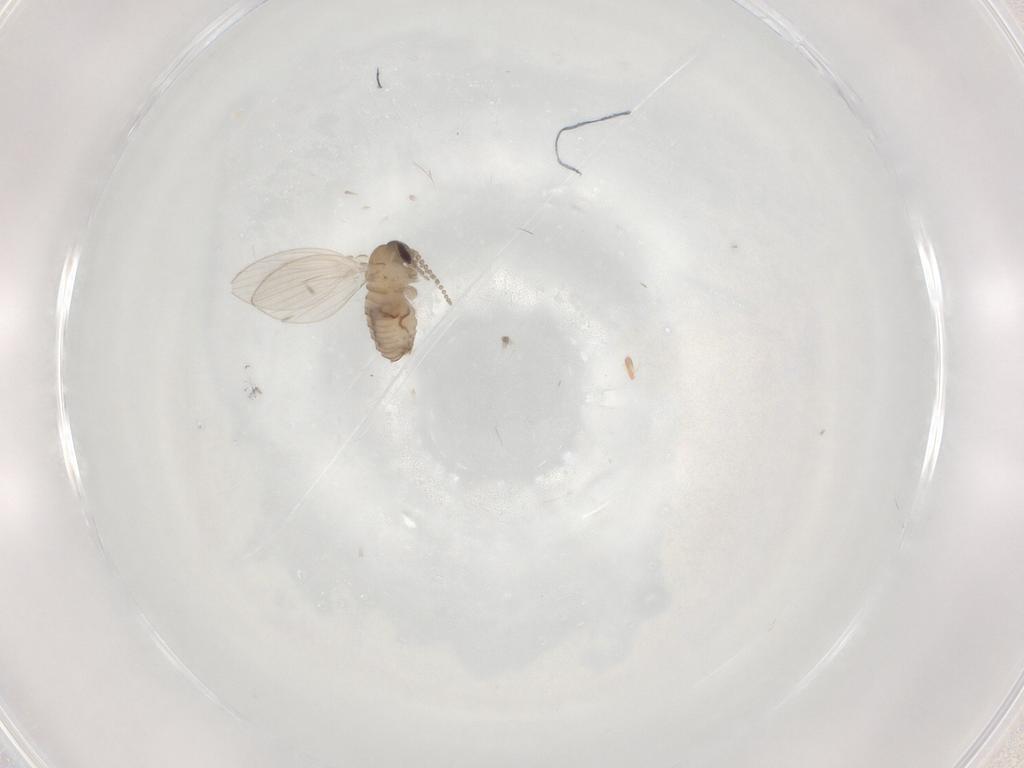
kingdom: Animalia
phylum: Arthropoda
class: Insecta
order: Diptera
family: Psychodidae
